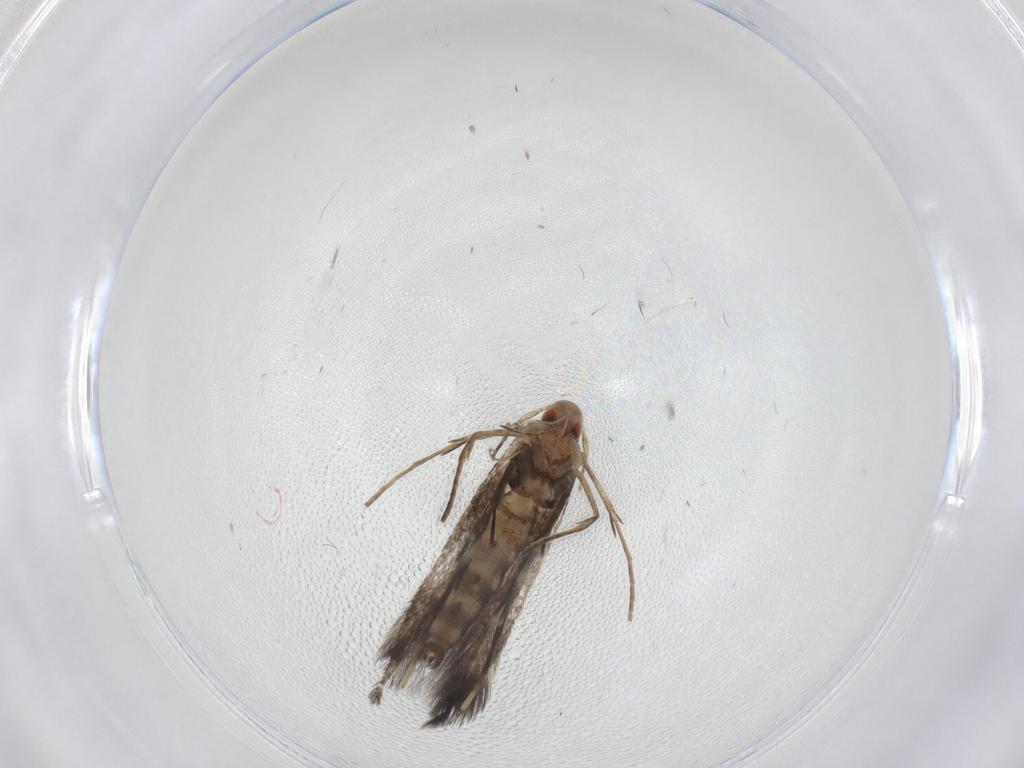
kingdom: Animalia
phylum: Arthropoda
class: Insecta
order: Lepidoptera
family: Cosmopterigidae
